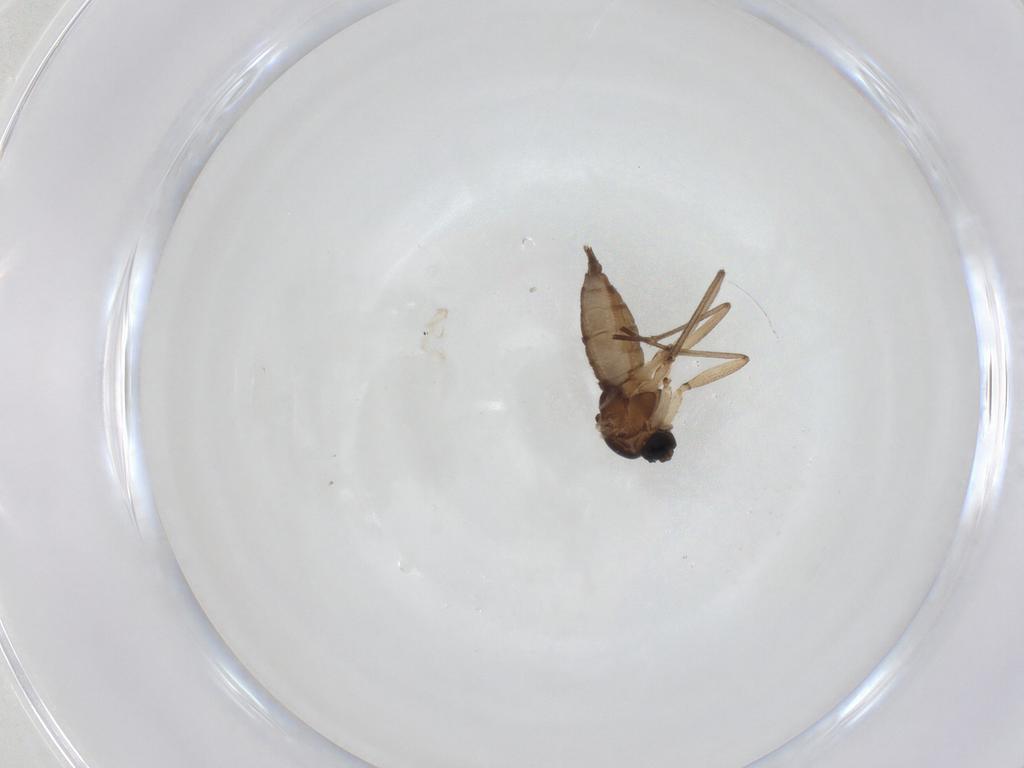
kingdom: Animalia
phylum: Arthropoda
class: Insecta
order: Diptera
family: Sciaridae
